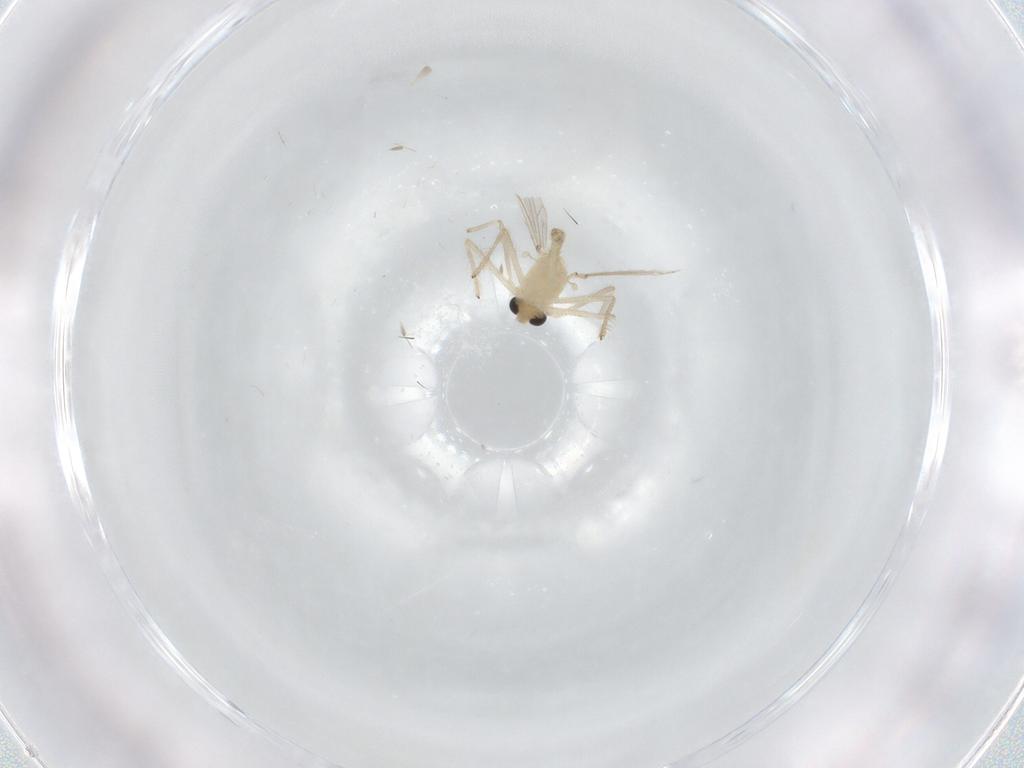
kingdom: Animalia
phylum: Arthropoda
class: Insecta
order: Diptera
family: Chironomidae
